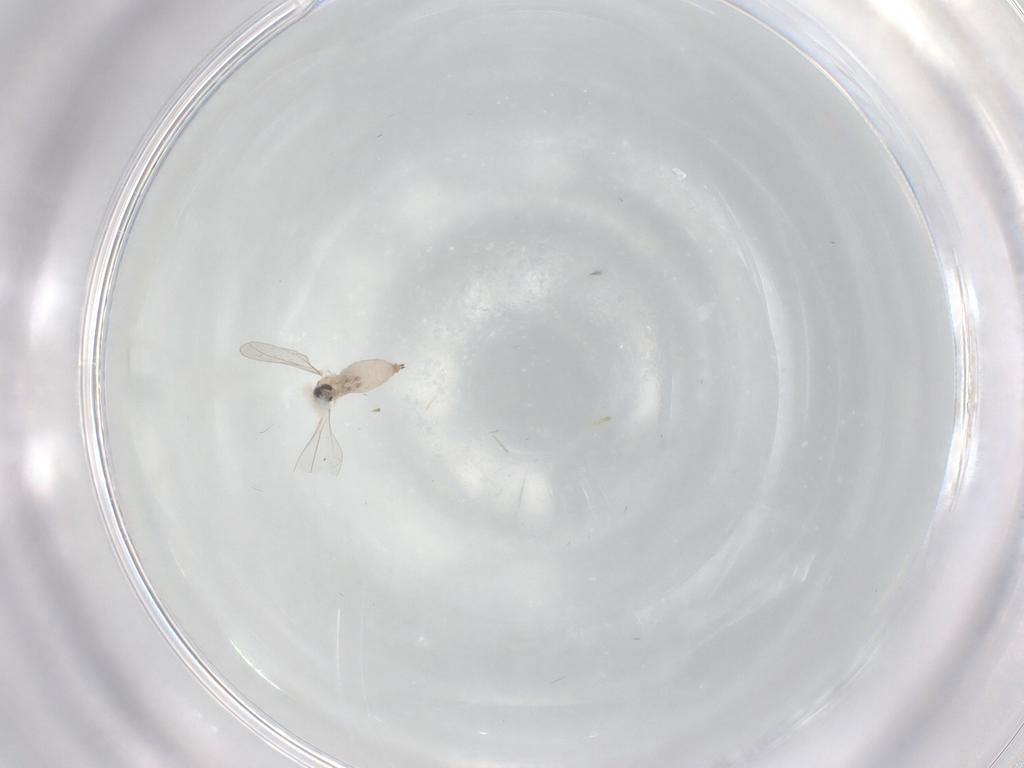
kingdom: Animalia
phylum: Arthropoda
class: Insecta
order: Diptera
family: Cecidomyiidae
